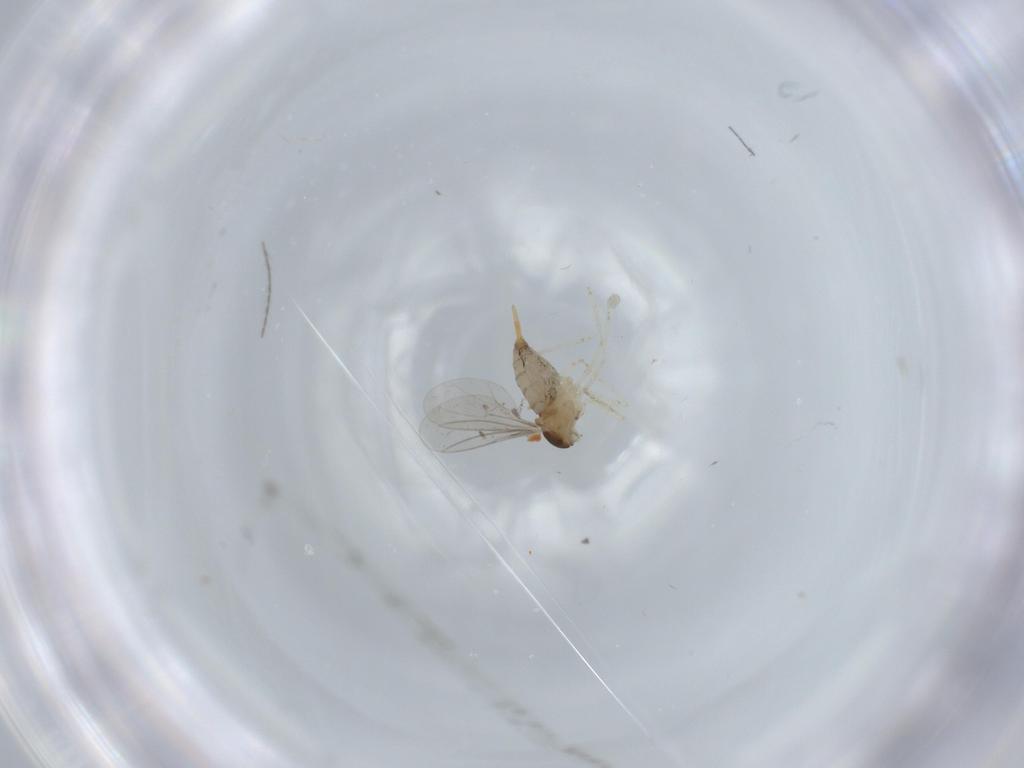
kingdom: Animalia
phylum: Arthropoda
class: Insecta
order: Diptera
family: Cecidomyiidae
